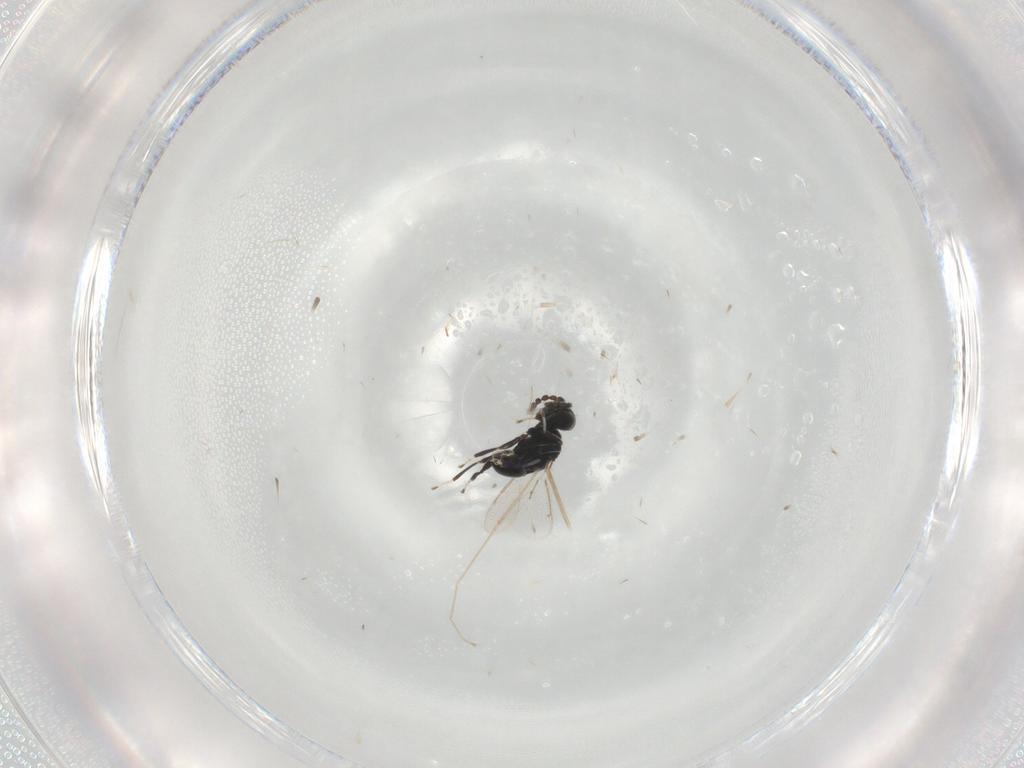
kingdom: Animalia
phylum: Arthropoda
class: Insecta
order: Hymenoptera
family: Eulophidae
